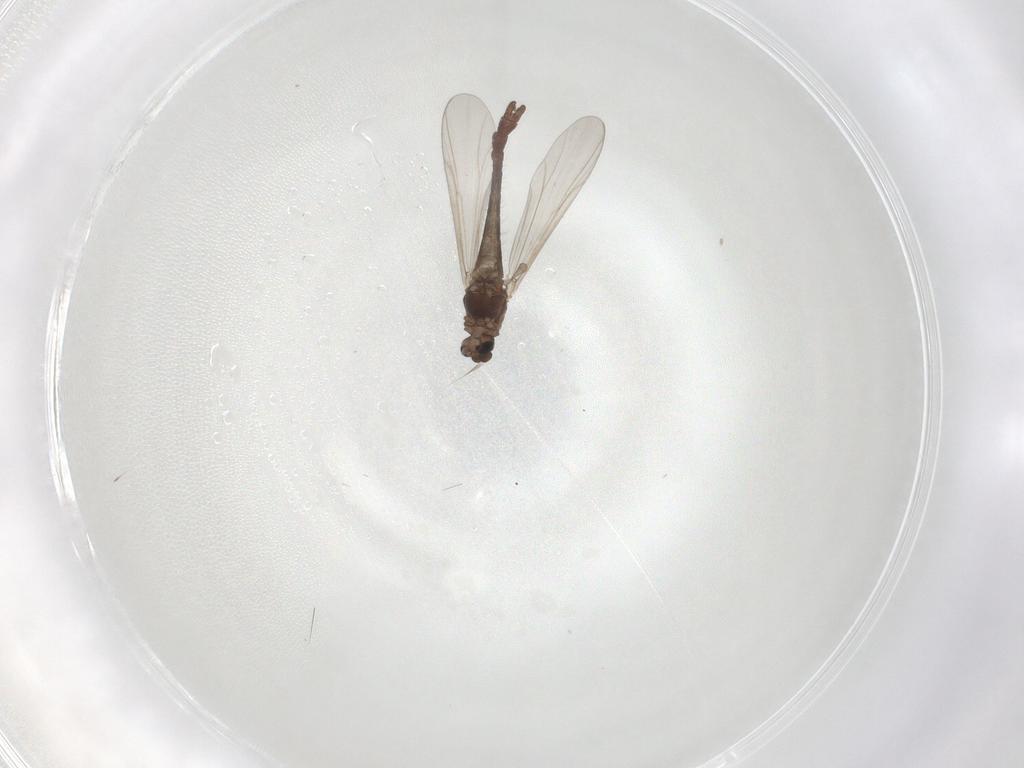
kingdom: Animalia
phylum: Arthropoda
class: Insecta
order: Diptera
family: Chironomidae
